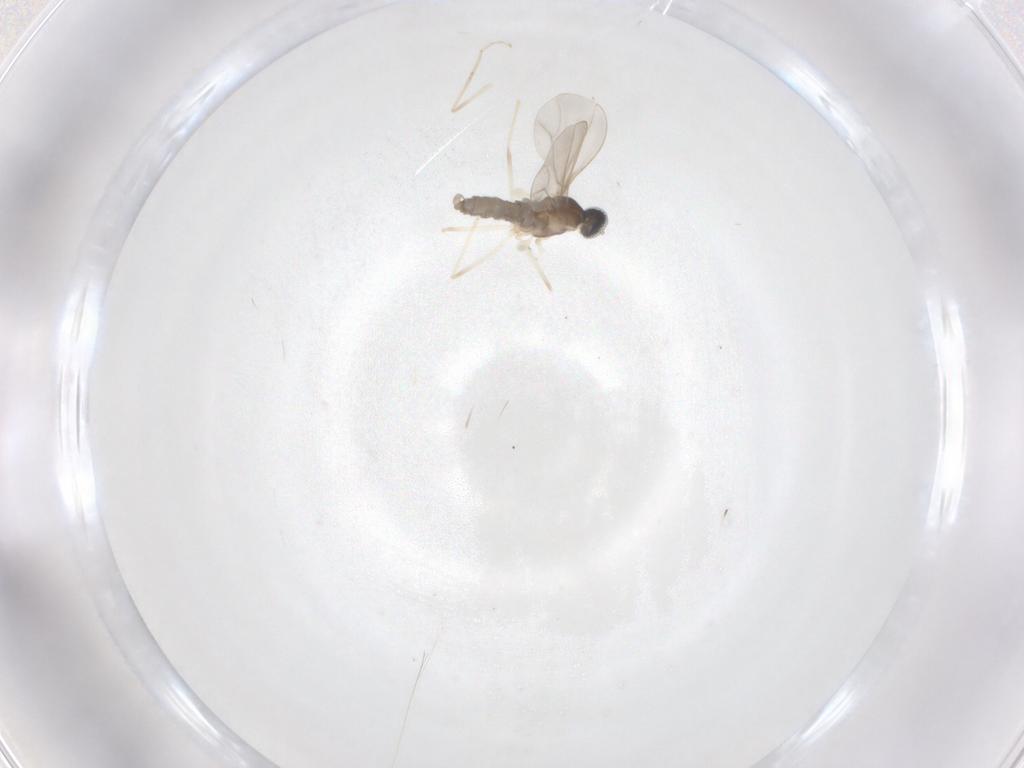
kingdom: Animalia
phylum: Arthropoda
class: Insecta
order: Diptera
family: Cecidomyiidae
